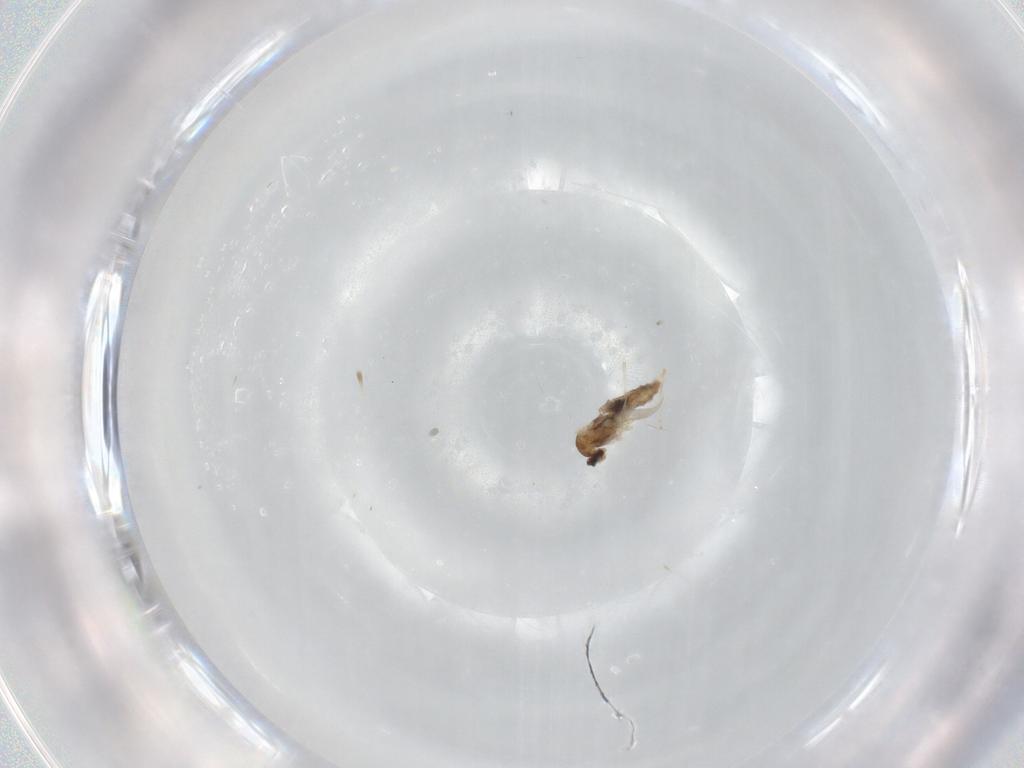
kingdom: Animalia
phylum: Arthropoda
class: Insecta
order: Diptera
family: Cecidomyiidae
